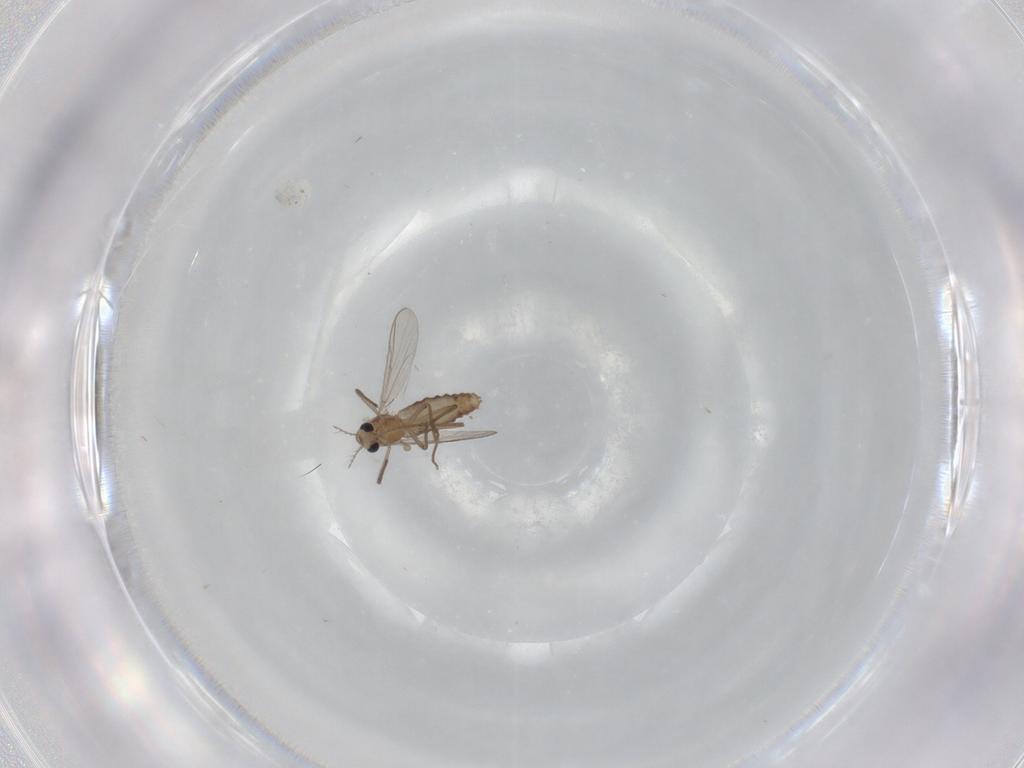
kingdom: Animalia
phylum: Arthropoda
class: Insecta
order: Diptera
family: Chironomidae
